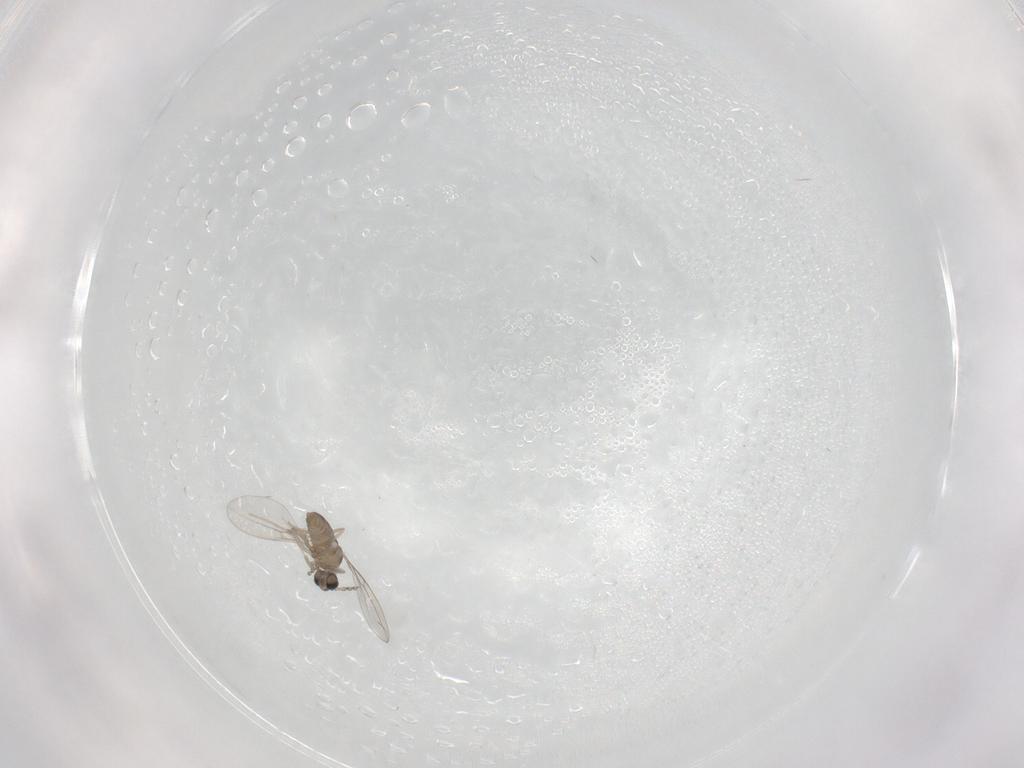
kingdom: Animalia
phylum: Arthropoda
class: Insecta
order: Diptera
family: Cecidomyiidae
